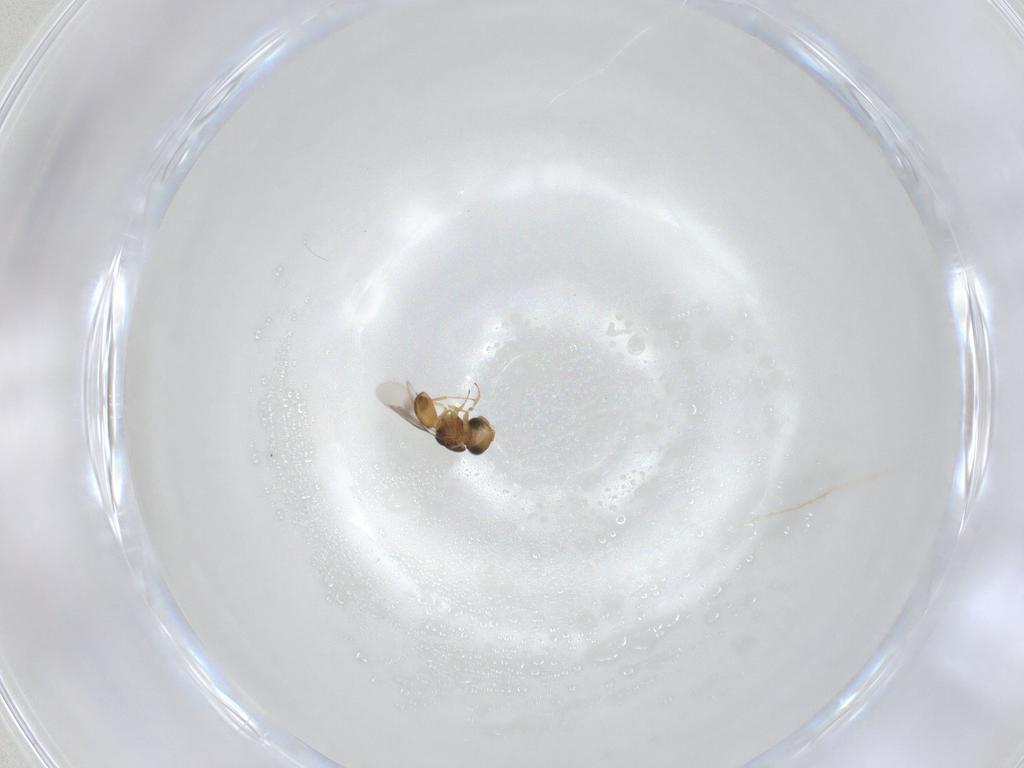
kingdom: Animalia
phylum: Arthropoda
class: Insecta
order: Hymenoptera
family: Scelionidae
